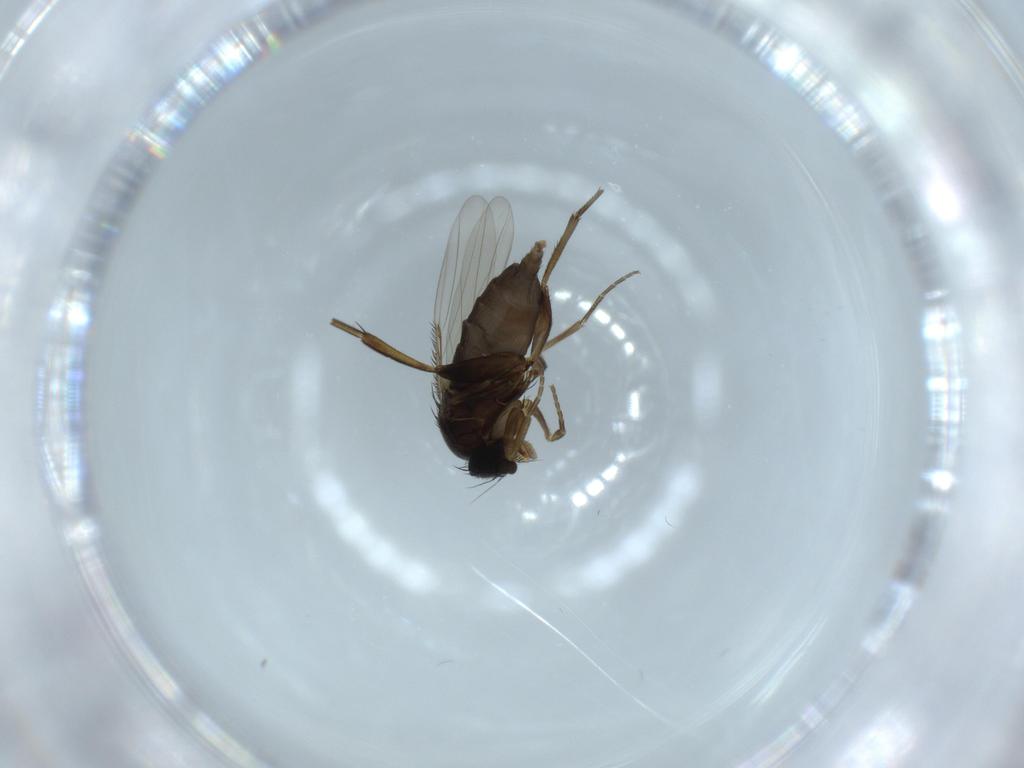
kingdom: Animalia
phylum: Arthropoda
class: Insecta
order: Diptera
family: Phoridae
